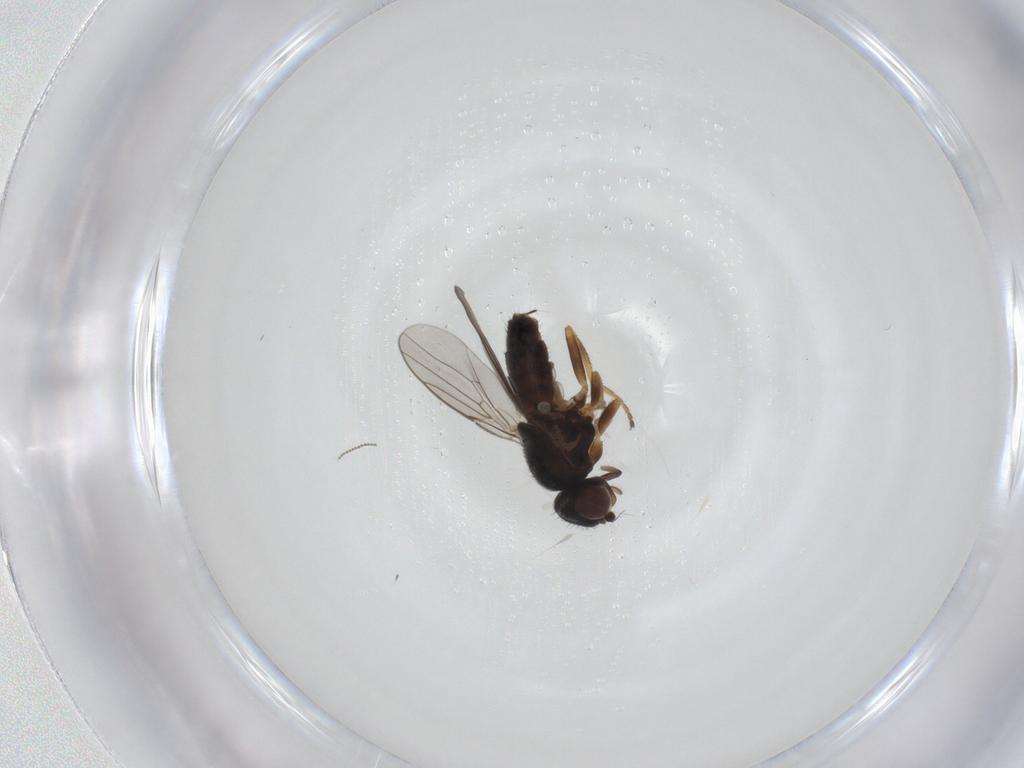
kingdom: Animalia
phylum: Arthropoda
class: Insecta
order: Diptera
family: Chloropidae
